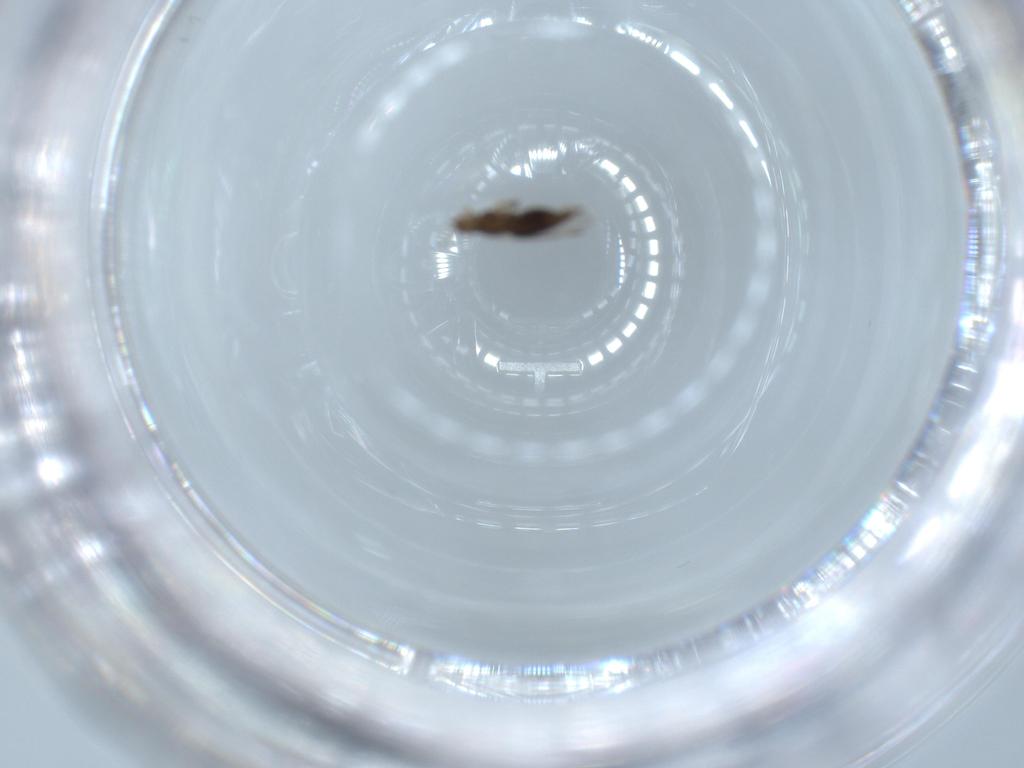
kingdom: Animalia
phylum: Arthropoda
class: Insecta
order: Thysanoptera
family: Thripidae
